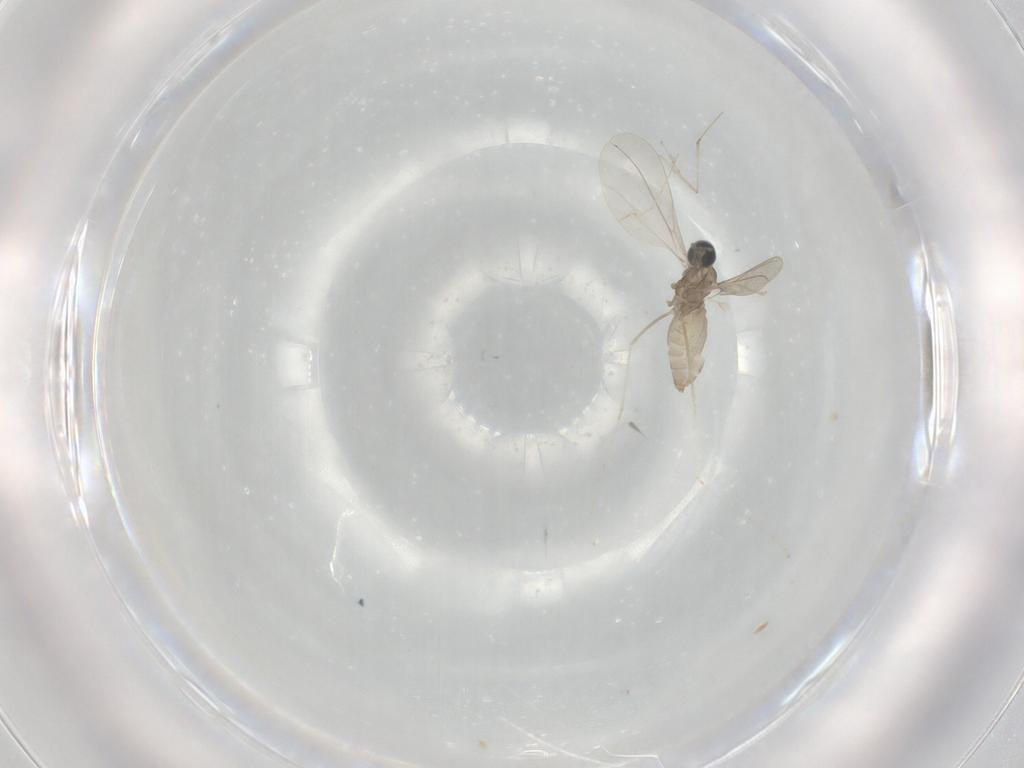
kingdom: Animalia
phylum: Arthropoda
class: Insecta
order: Diptera
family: Cecidomyiidae
